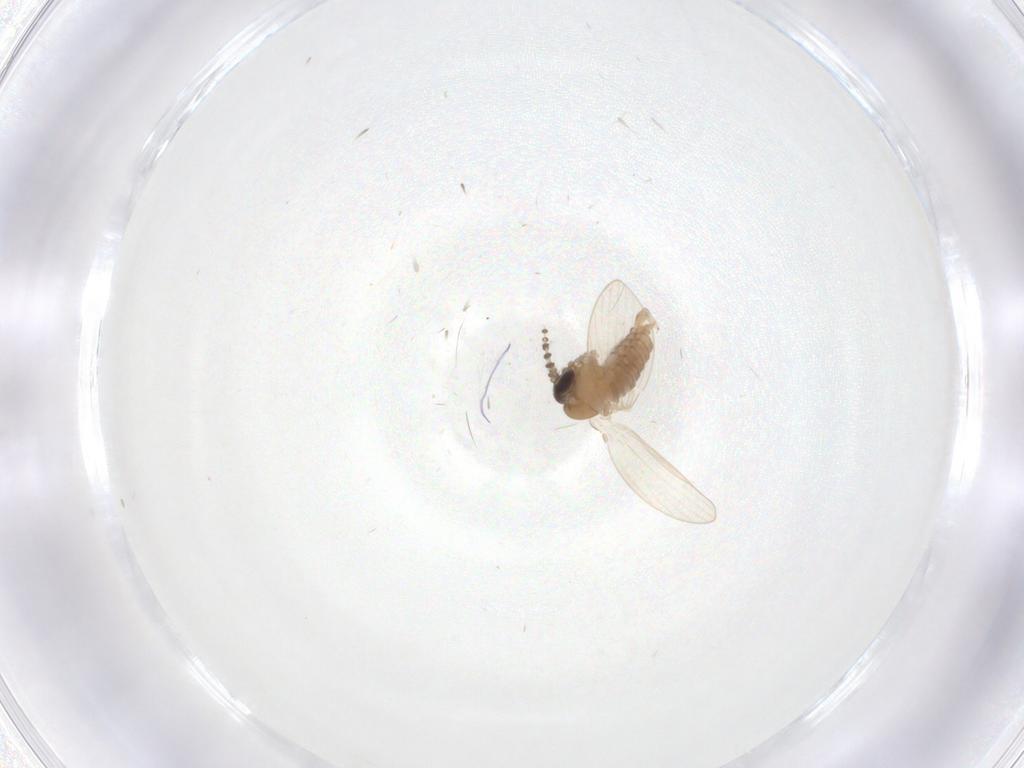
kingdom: Animalia
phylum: Arthropoda
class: Insecta
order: Diptera
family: Psychodidae
